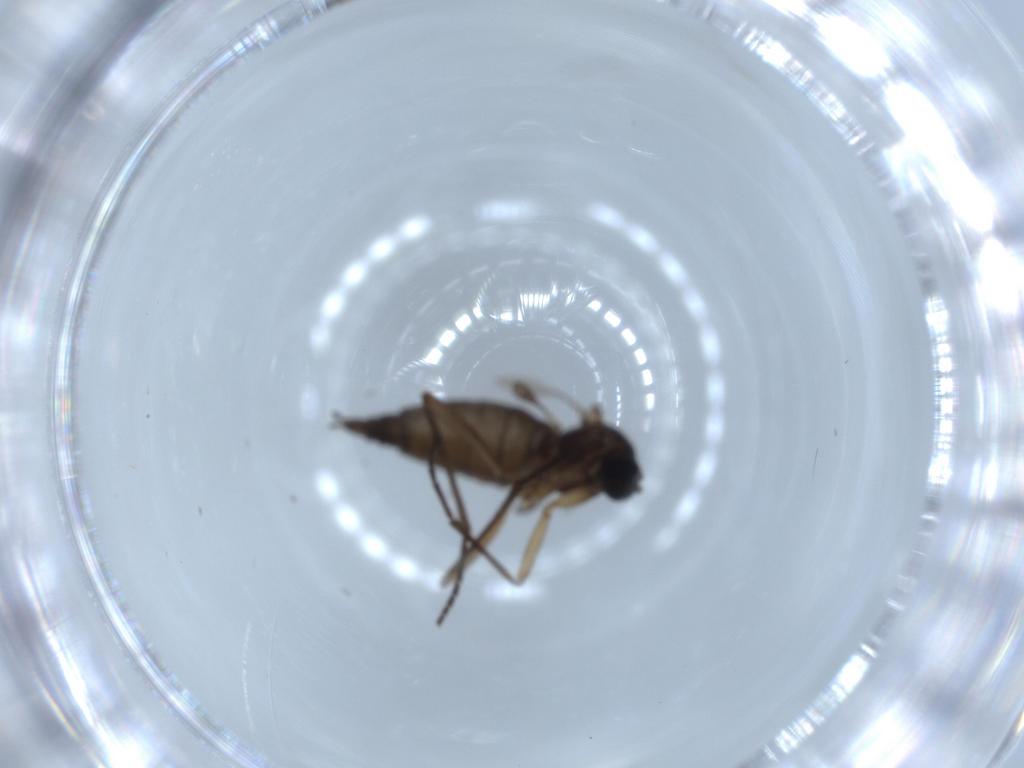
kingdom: Animalia
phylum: Arthropoda
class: Insecta
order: Diptera
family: Sciaridae
